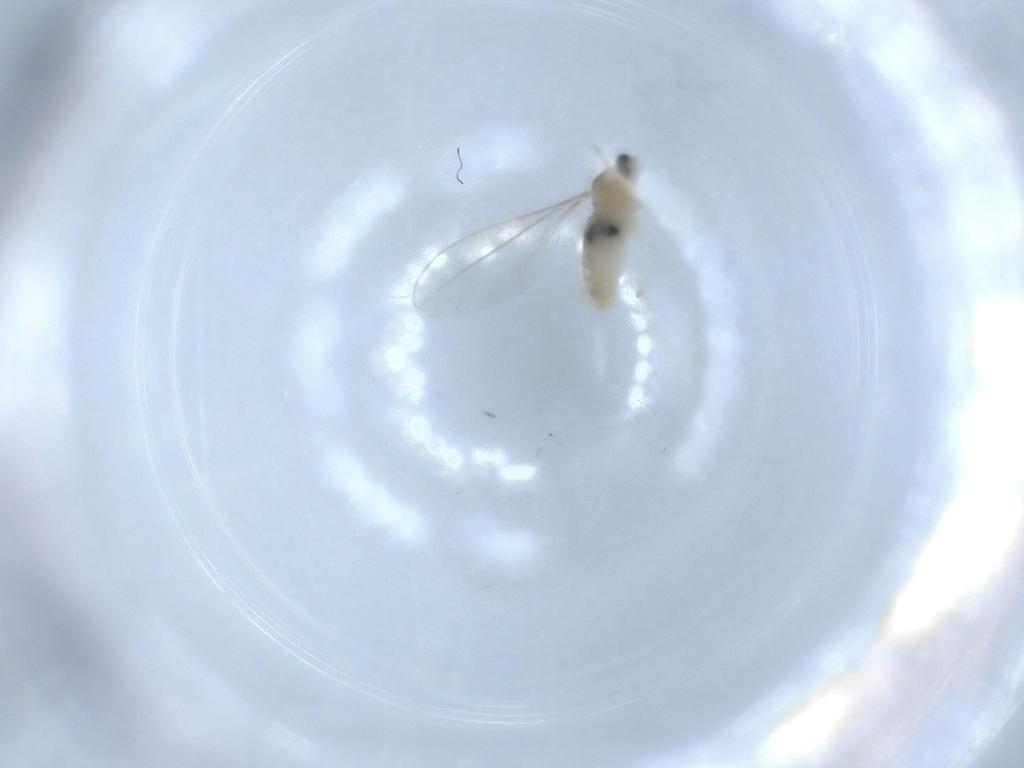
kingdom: Animalia
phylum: Arthropoda
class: Insecta
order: Diptera
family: Cecidomyiidae
